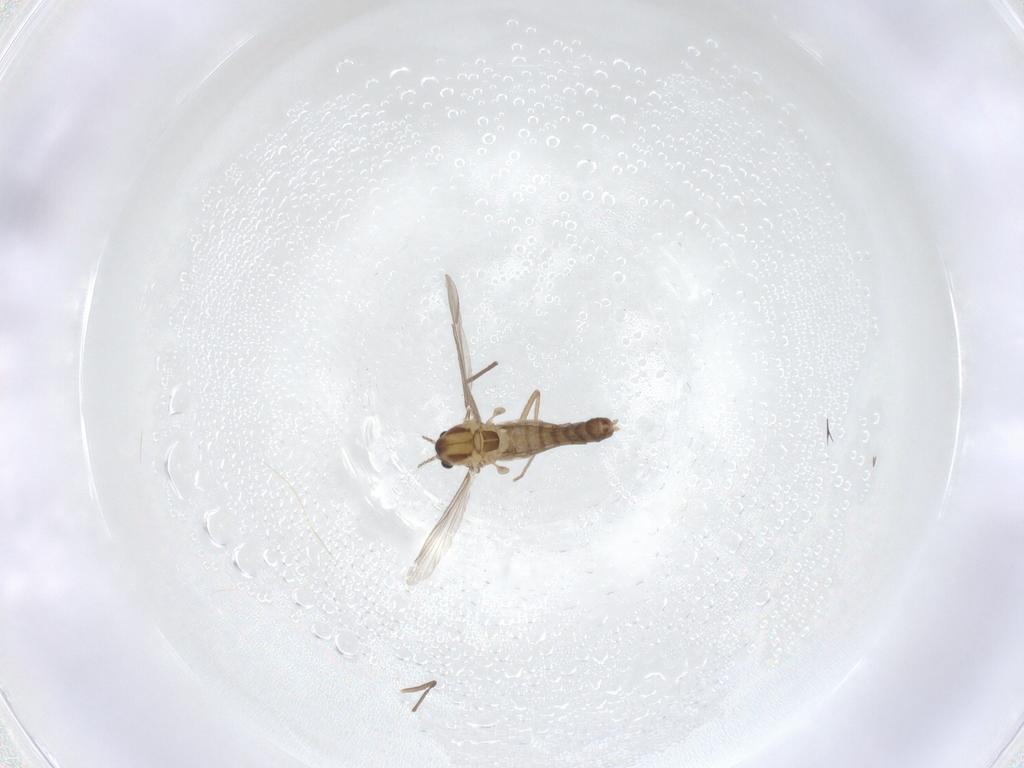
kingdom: Animalia
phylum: Arthropoda
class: Insecta
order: Diptera
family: Chironomidae
